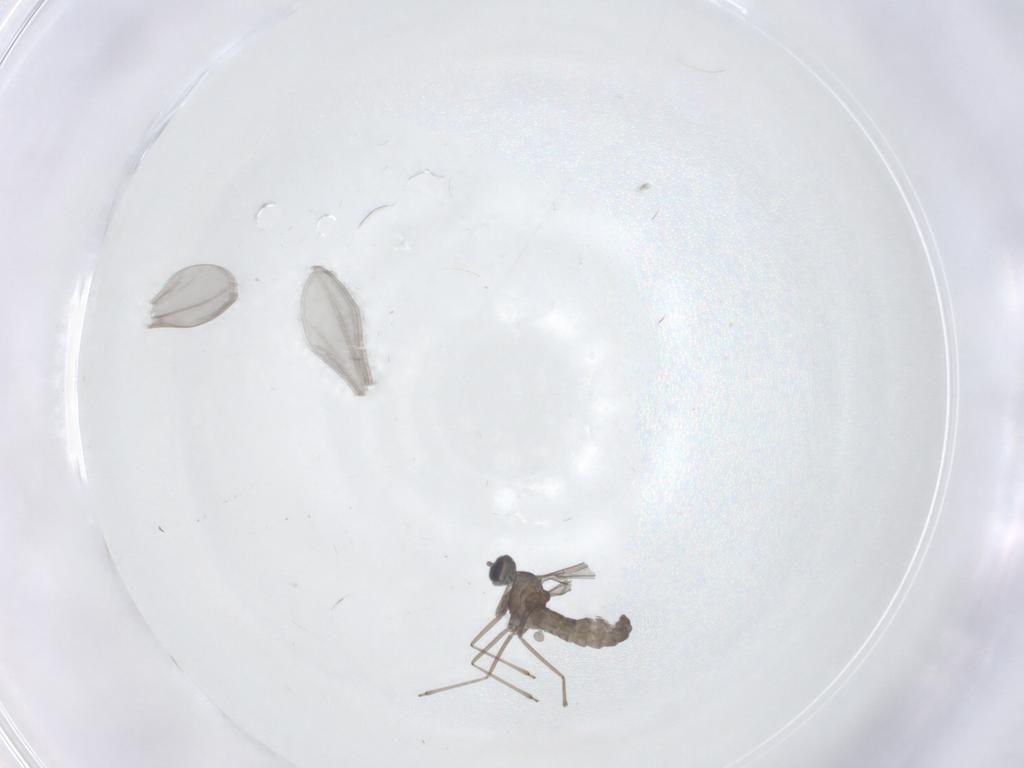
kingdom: Animalia
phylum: Arthropoda
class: Insecta
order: Diptera
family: Cecidomyiidae
